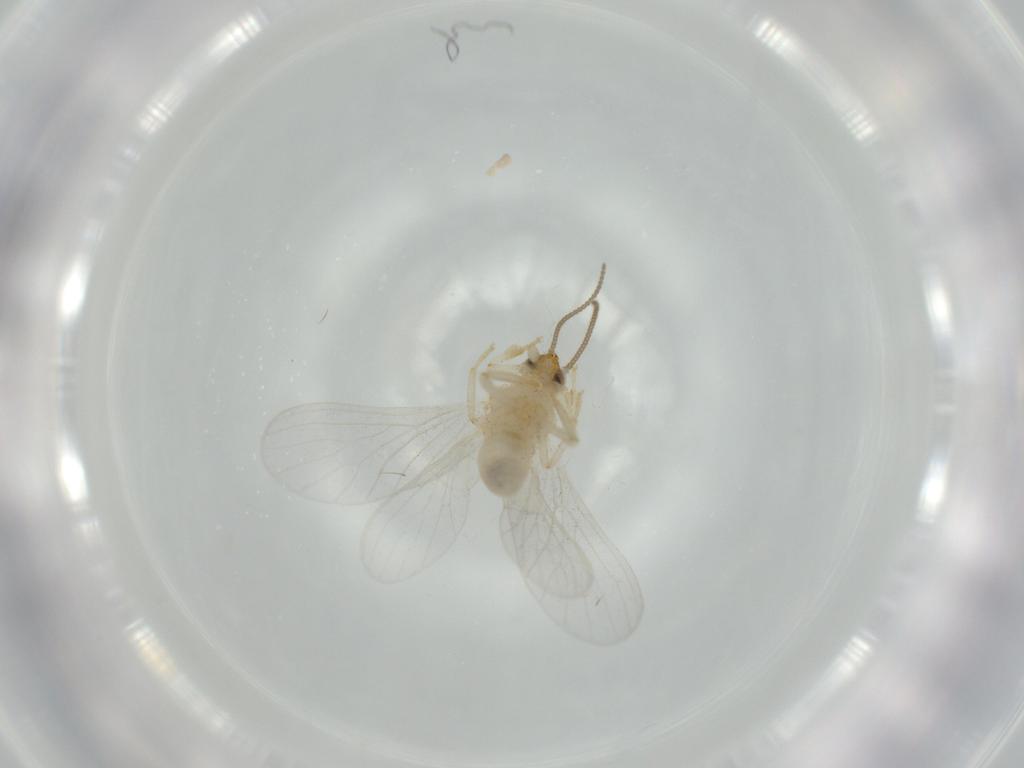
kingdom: Animalia
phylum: Arthropoda
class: Insecta
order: Neuroptera
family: Coniopterygidae
